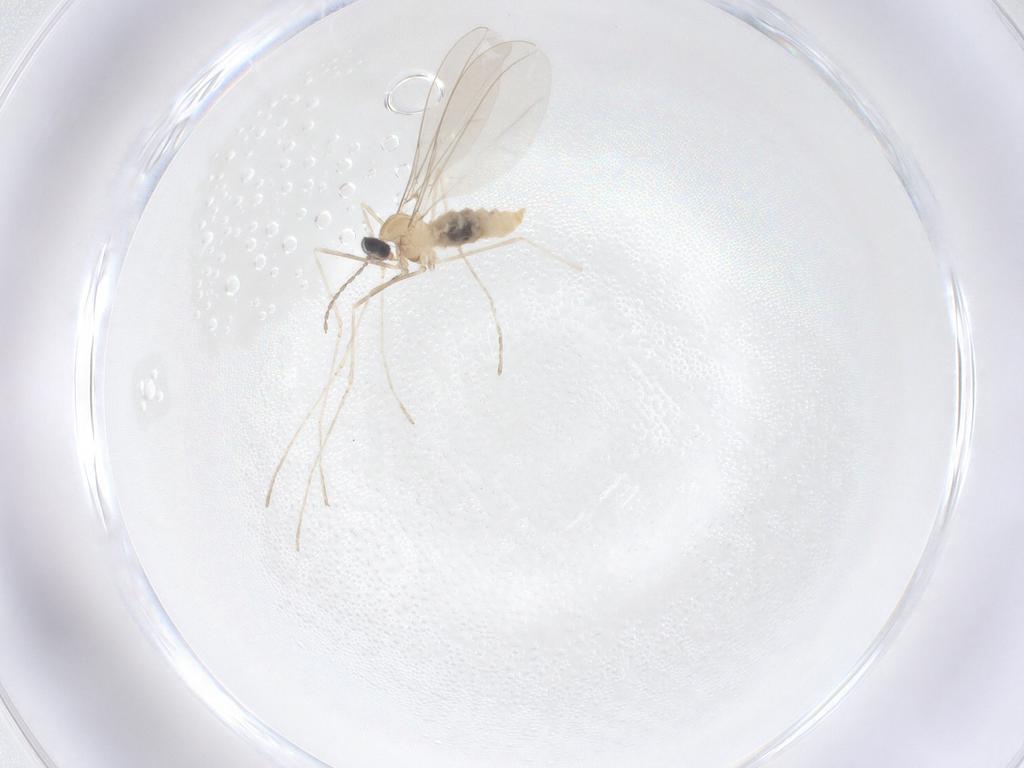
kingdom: Animalia
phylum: Arthropoda
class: Insecta
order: Diptera
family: Cecidomyiidae
